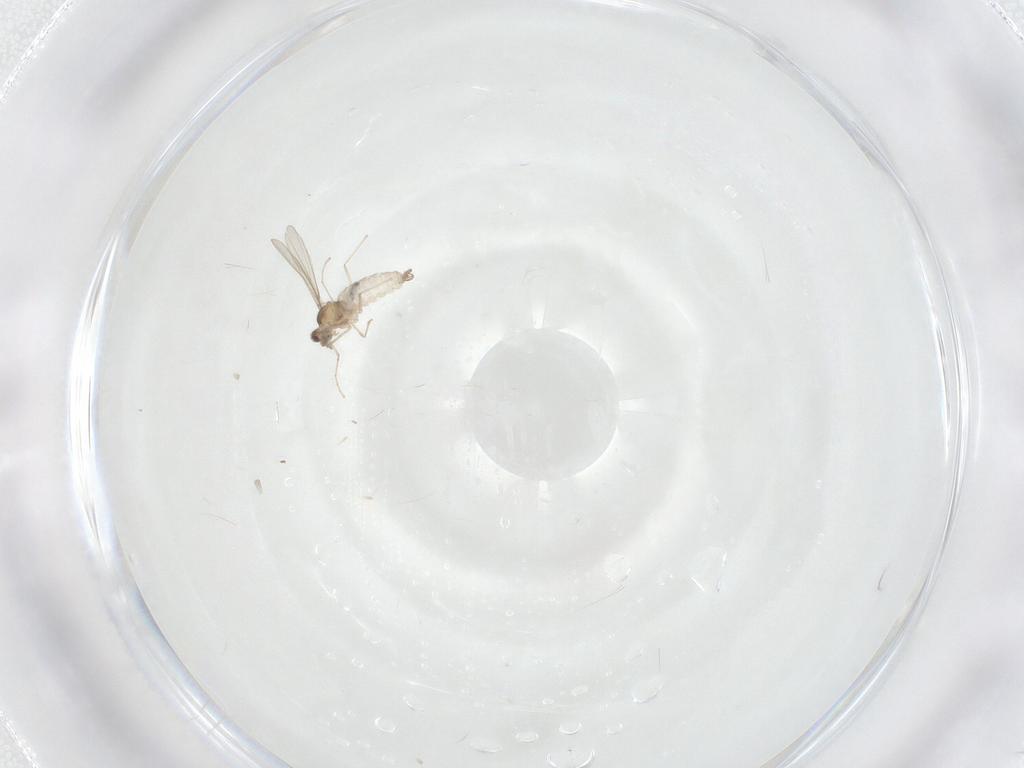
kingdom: Animalia
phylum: Arthropoda
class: Insecta
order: Diptera
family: Cecidomyiidae
